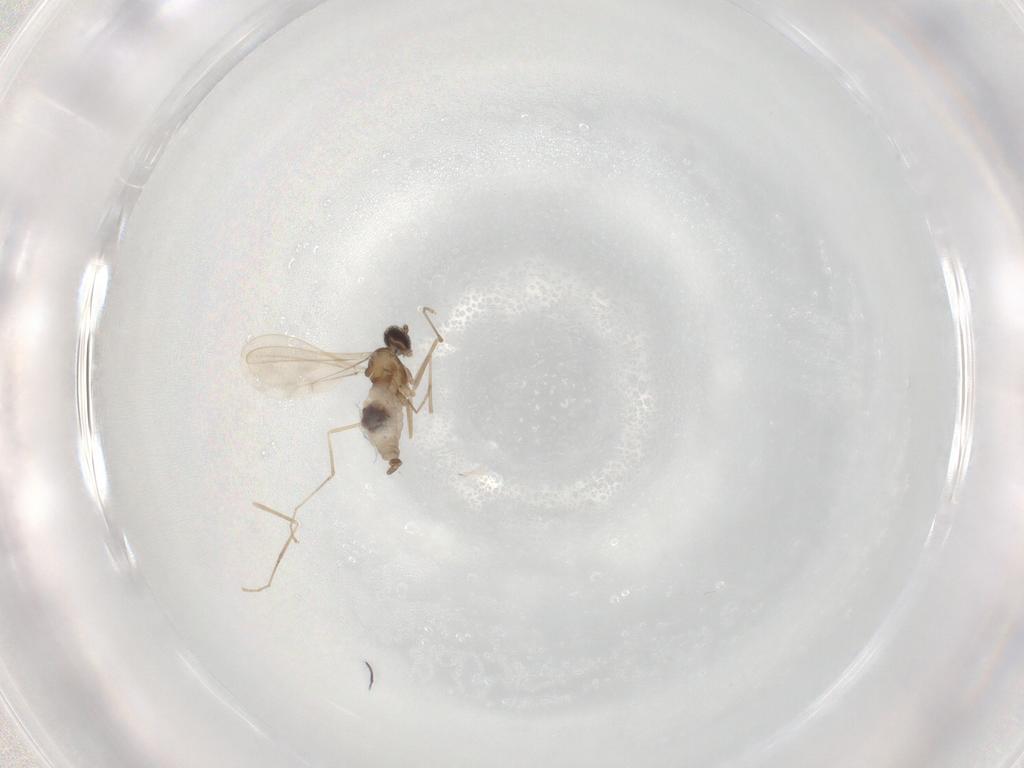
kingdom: Animalia
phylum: Arthropoda
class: Insecta
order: Diptera
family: Cecidomyiidae
